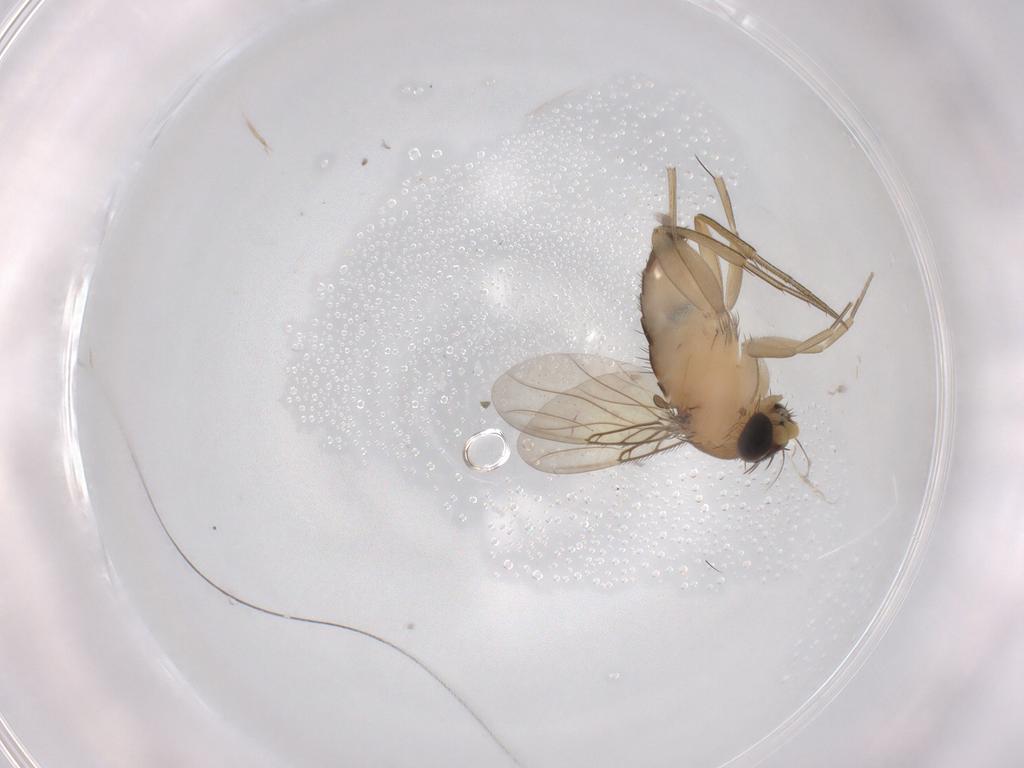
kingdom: Animalia
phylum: Arthropoda
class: Insecta
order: Diptera
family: Phoridae
